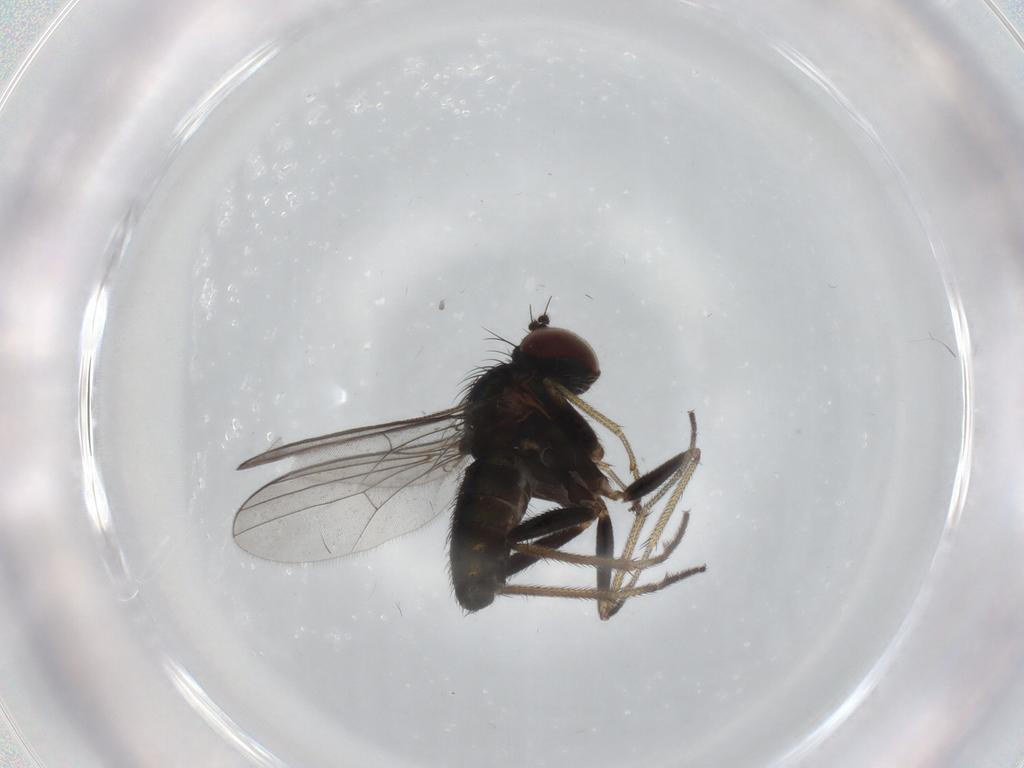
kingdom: Animalia
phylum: Arthropoda
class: Insecta
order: Diptera
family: Dolichopodidae
